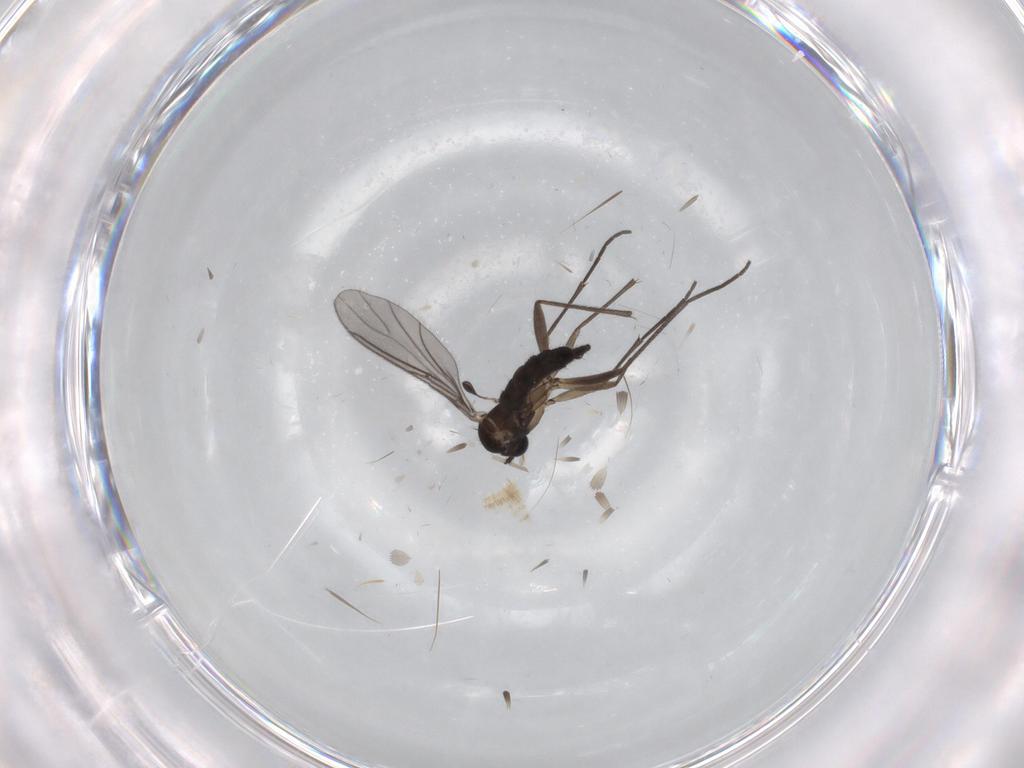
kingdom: Animalia
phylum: Arthropoda
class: Insecta
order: Diptera
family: Sciaridae
